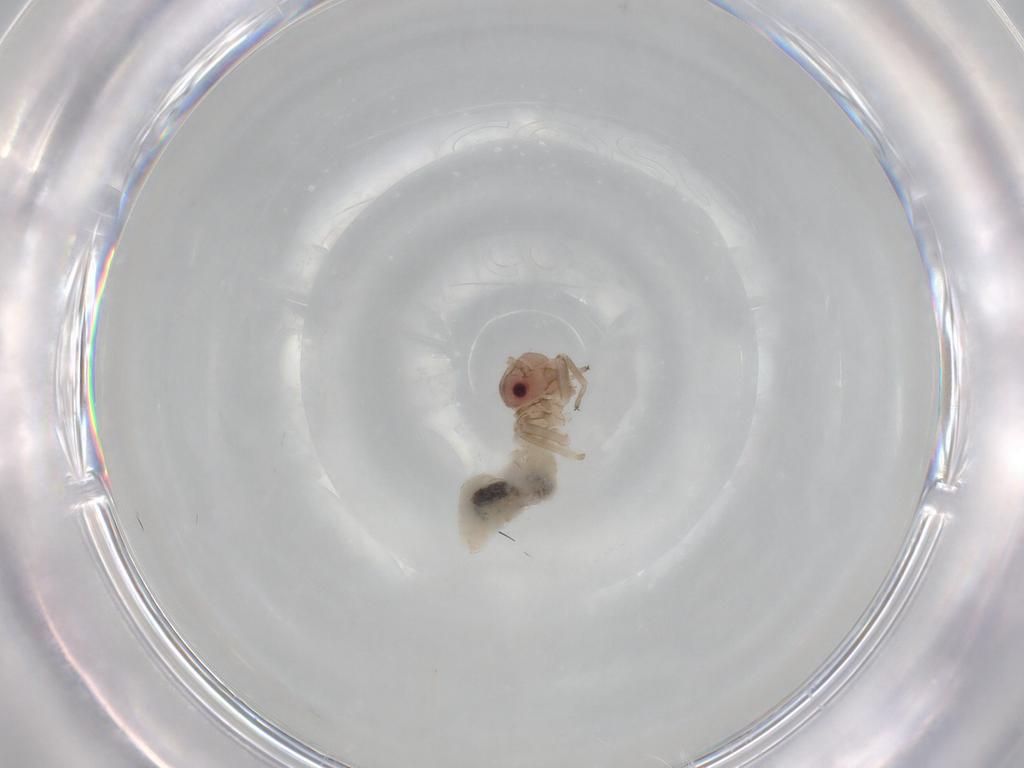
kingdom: Animalia
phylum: Arthropoda
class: Insecta
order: Psocodea
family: Stenopsocidae
